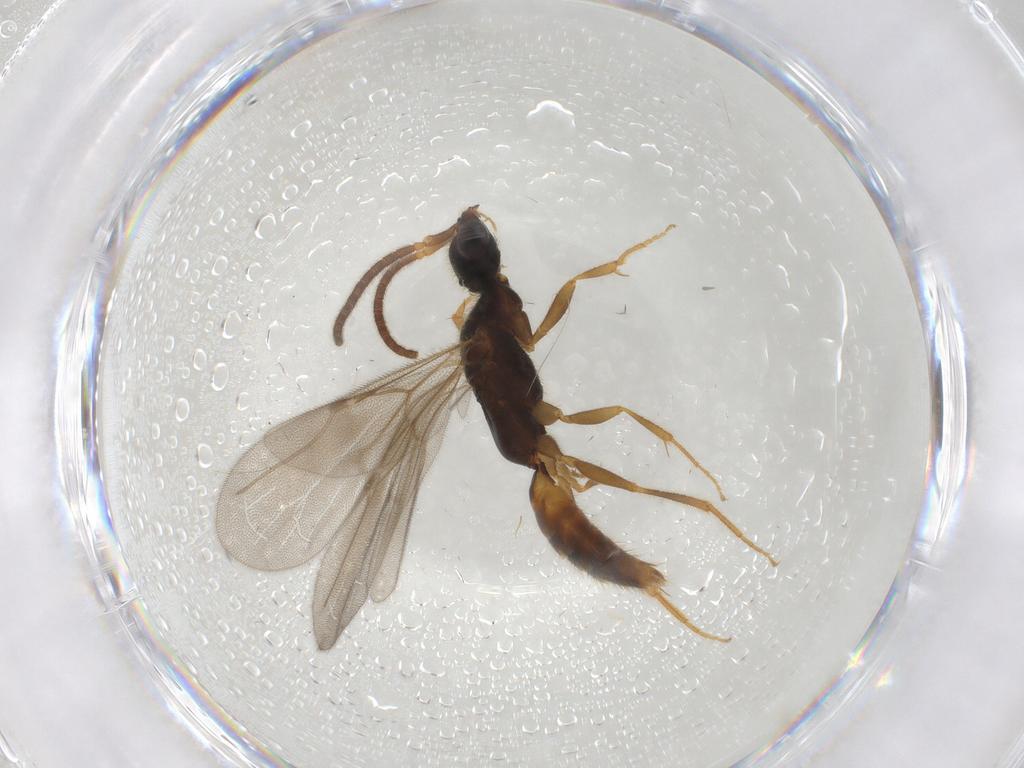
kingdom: Animalia
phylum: Arthropoda
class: Insecta
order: Hymenoptera
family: Bethylidae
